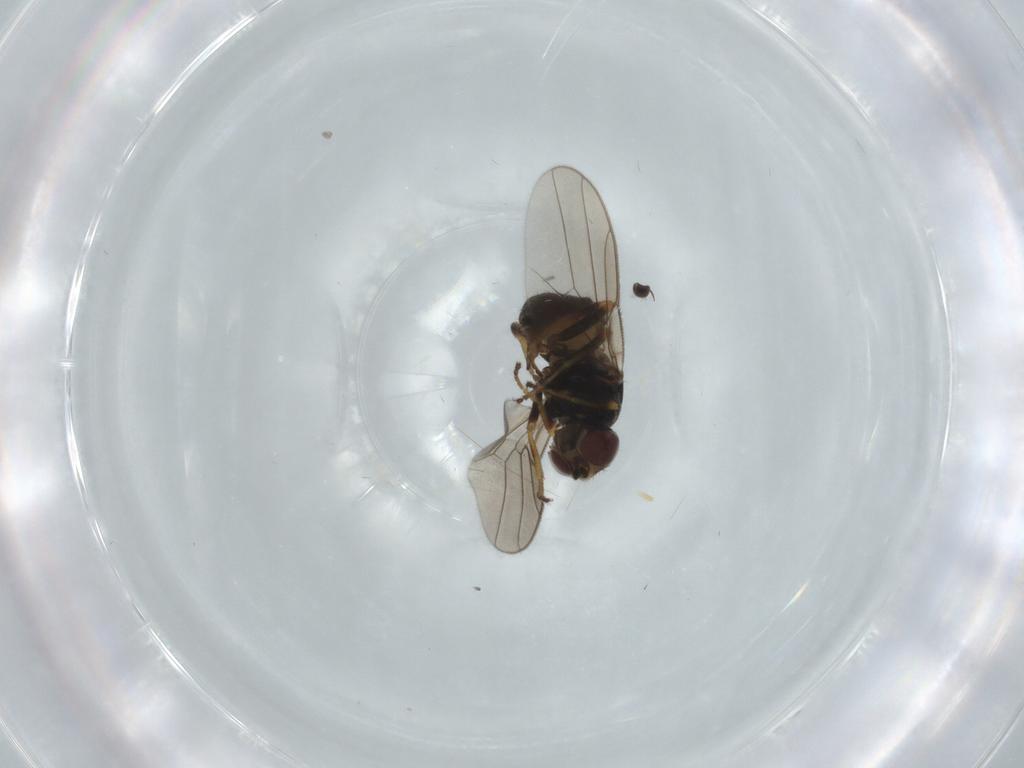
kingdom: Animalia
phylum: Arthropoda
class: Insecta
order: Diptera
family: Chloropidae
